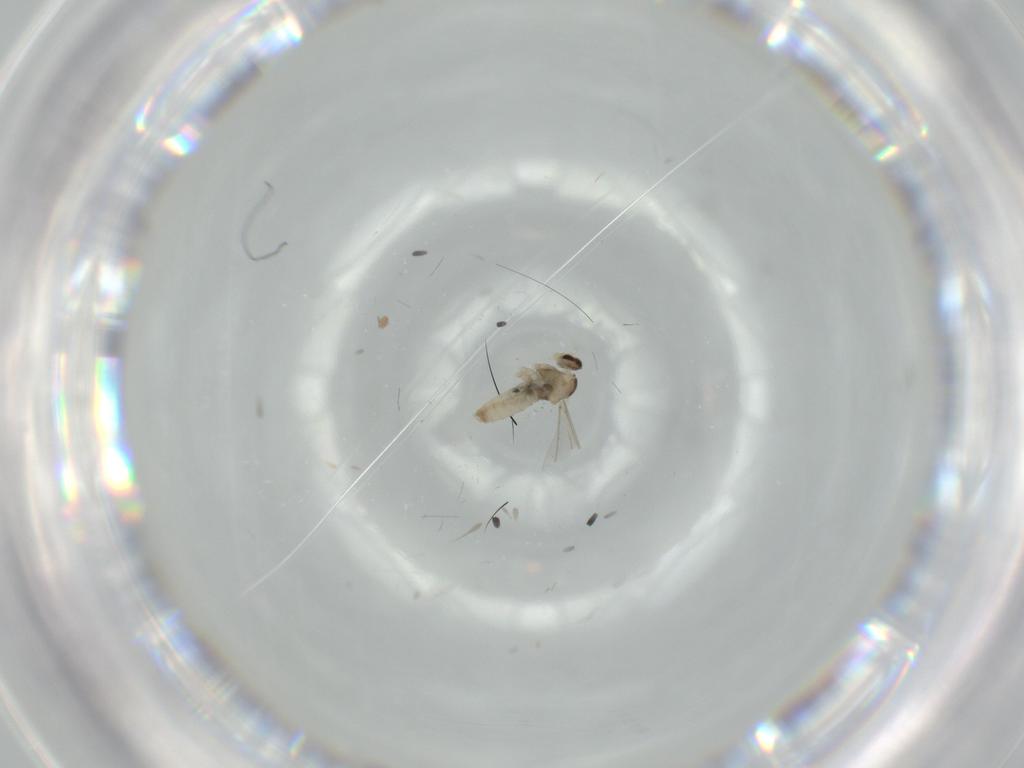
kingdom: Animalia
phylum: Arthropoda
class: Insecta
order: Diptera
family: Cecidomyiidae
